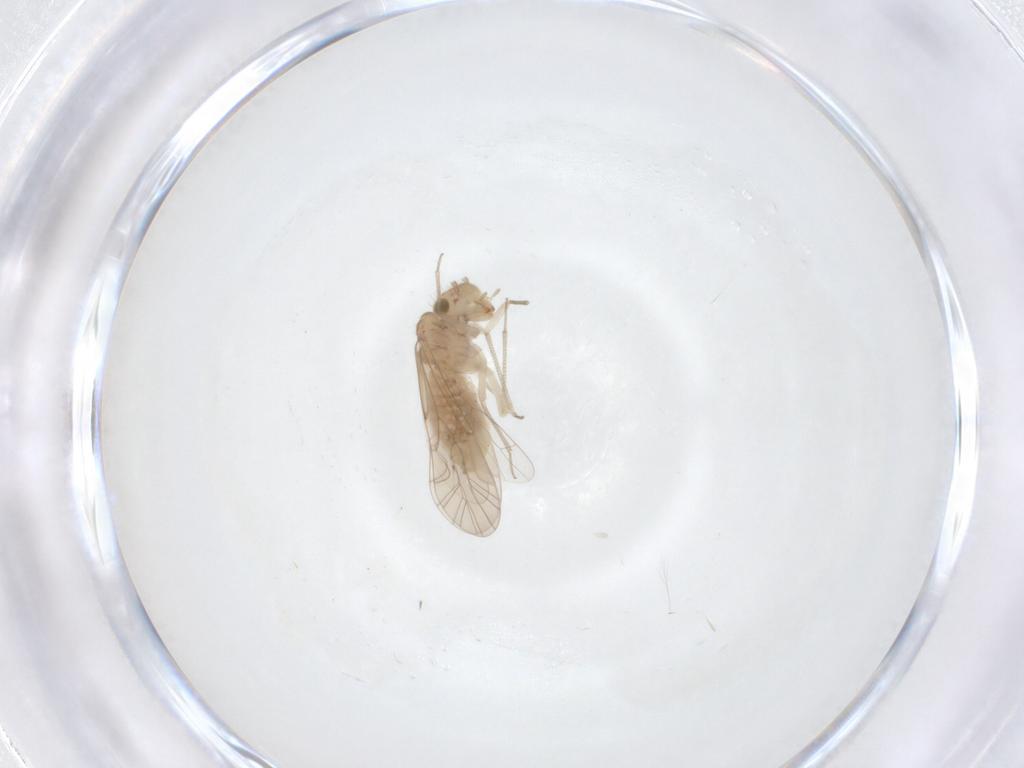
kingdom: Animalia
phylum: Arthropoda
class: Insecta
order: Psocodea
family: Lachesillidae
